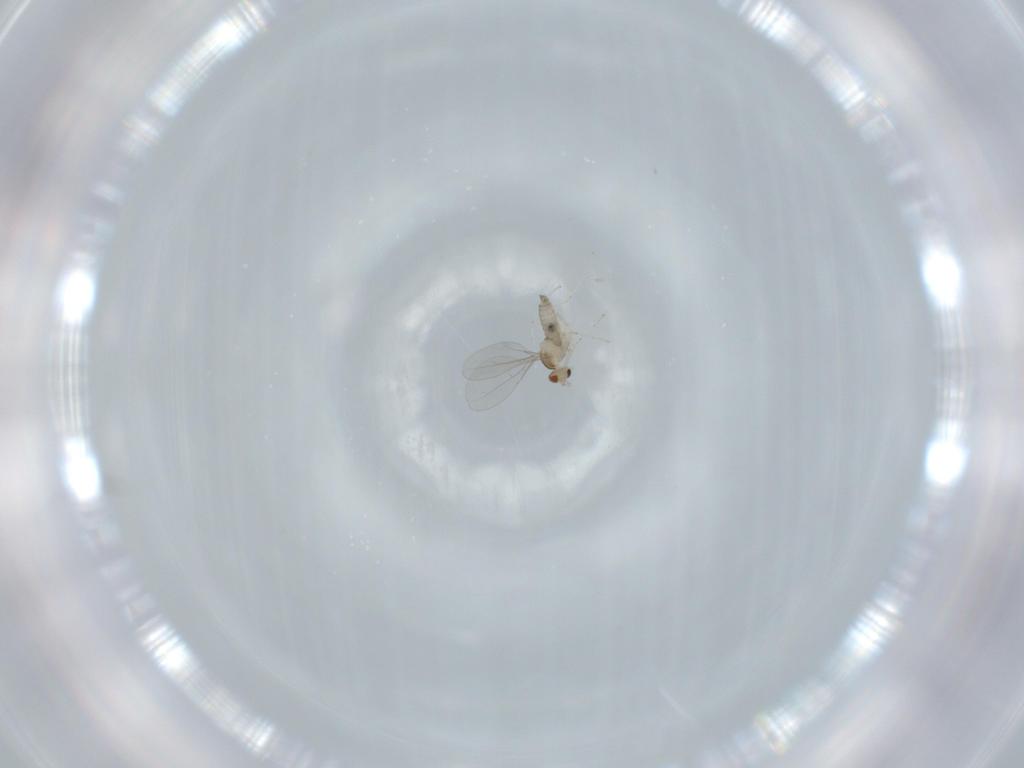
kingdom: Animalia
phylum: Arthropoda
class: Insecta
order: Diptera
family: Cecidomyiidae
